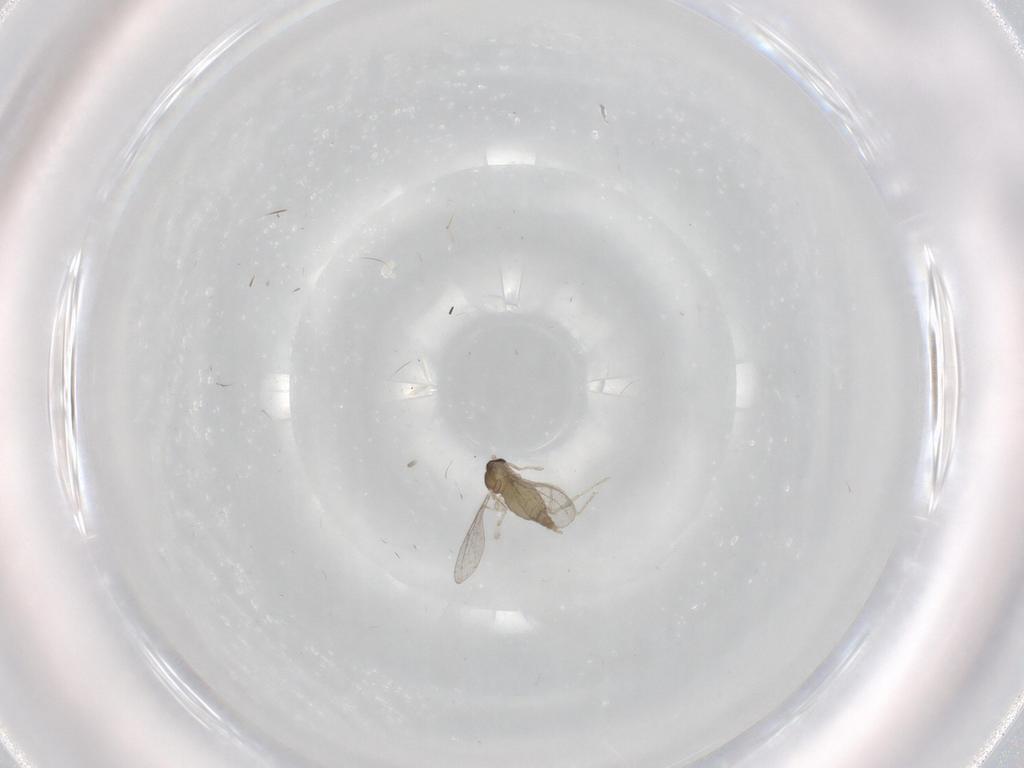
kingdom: Animalia
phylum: Arthropoda
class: Insecta
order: Diptera
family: Cecidomyiidae
